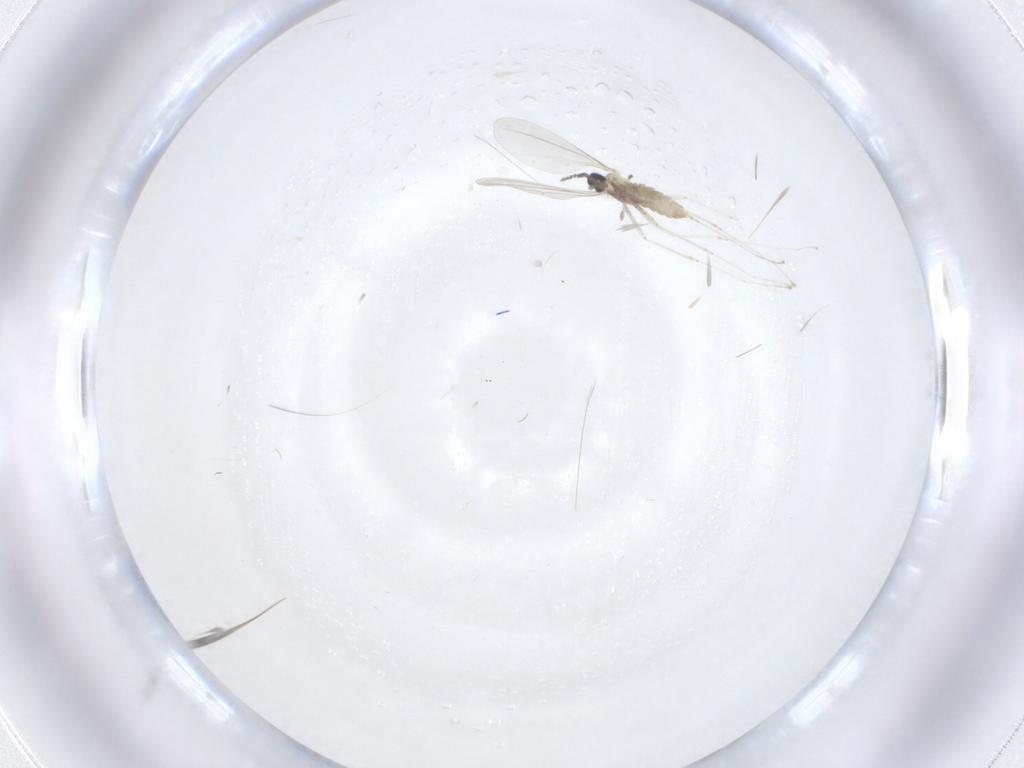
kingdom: Animalia
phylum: Arthropoda
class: Insecta
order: Diptera
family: Cecidomyiidae
